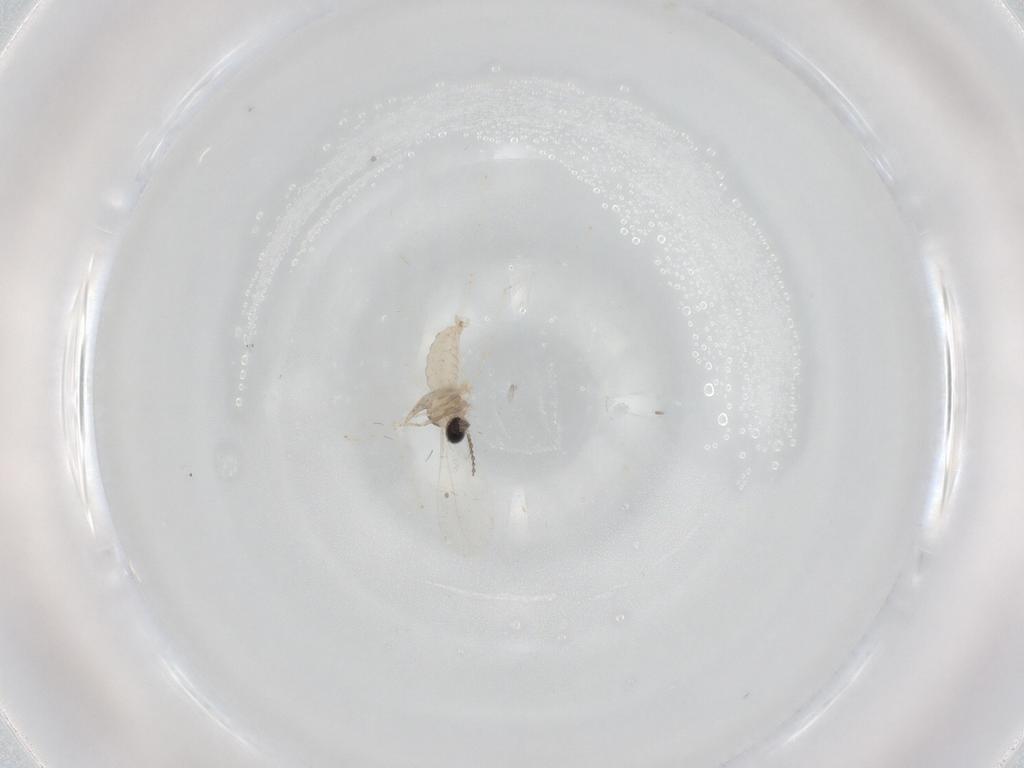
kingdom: Animalia
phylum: Arthropoda
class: Insecta
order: Diptera
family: Cecidomyiidae
